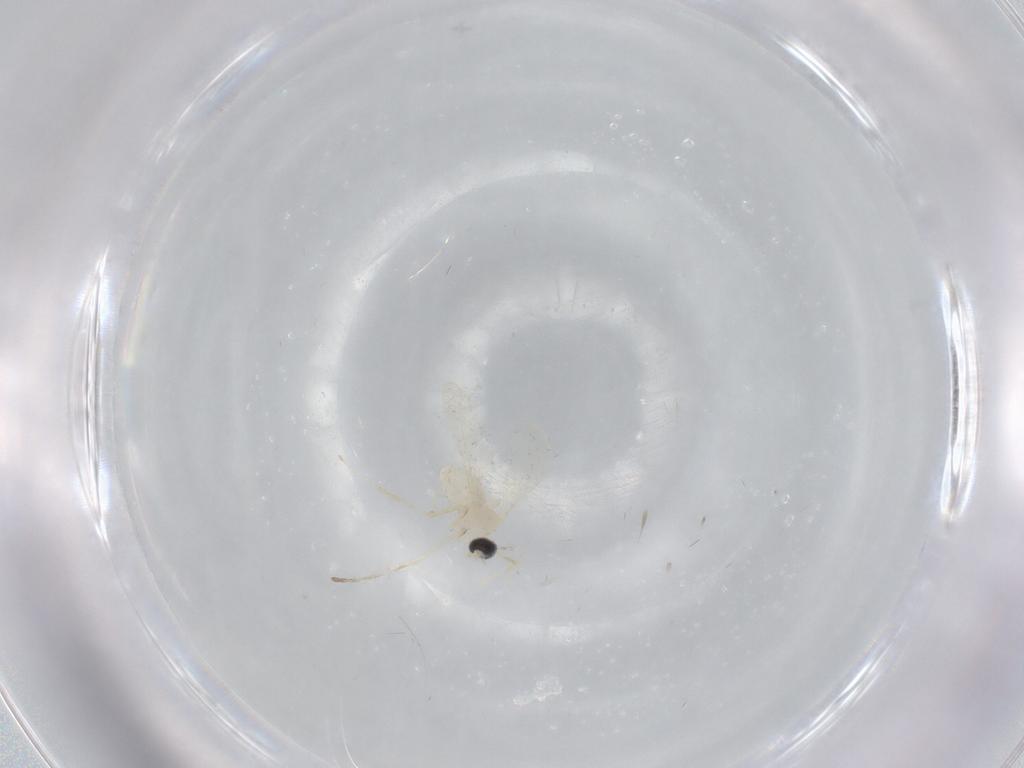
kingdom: Animalia
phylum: Arthropoda
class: Insecta
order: Diptera
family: Cecidomyiidae
